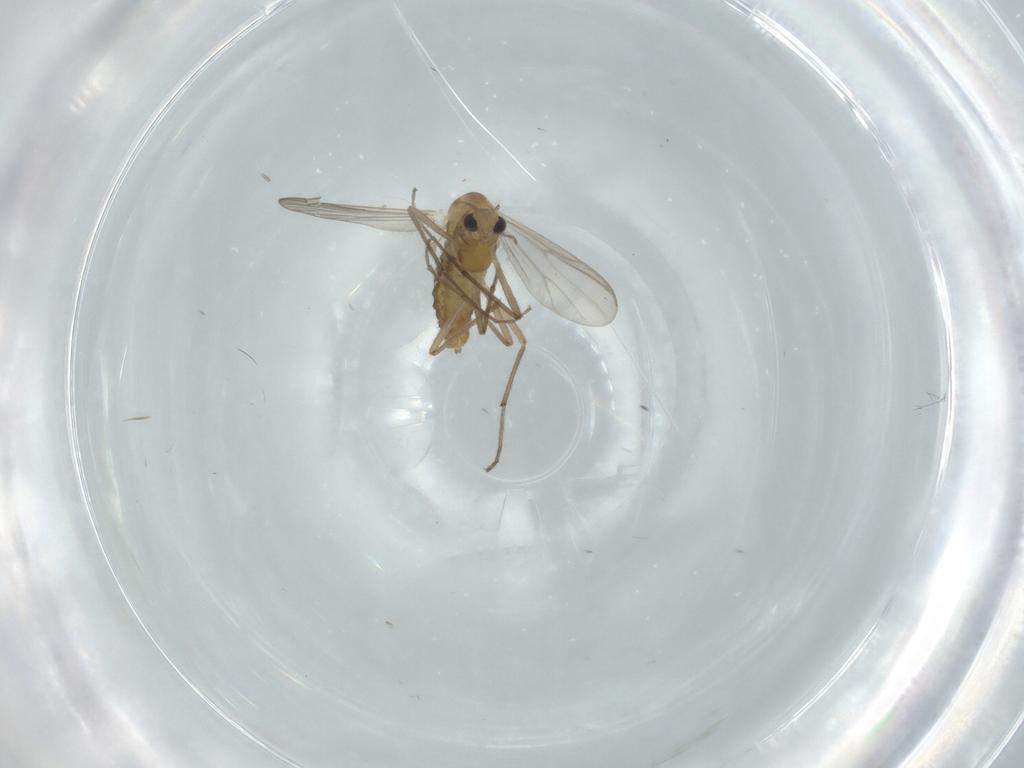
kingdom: Animalia
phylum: Arthropoda
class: Insecta
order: Diptera
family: Chironomidae
